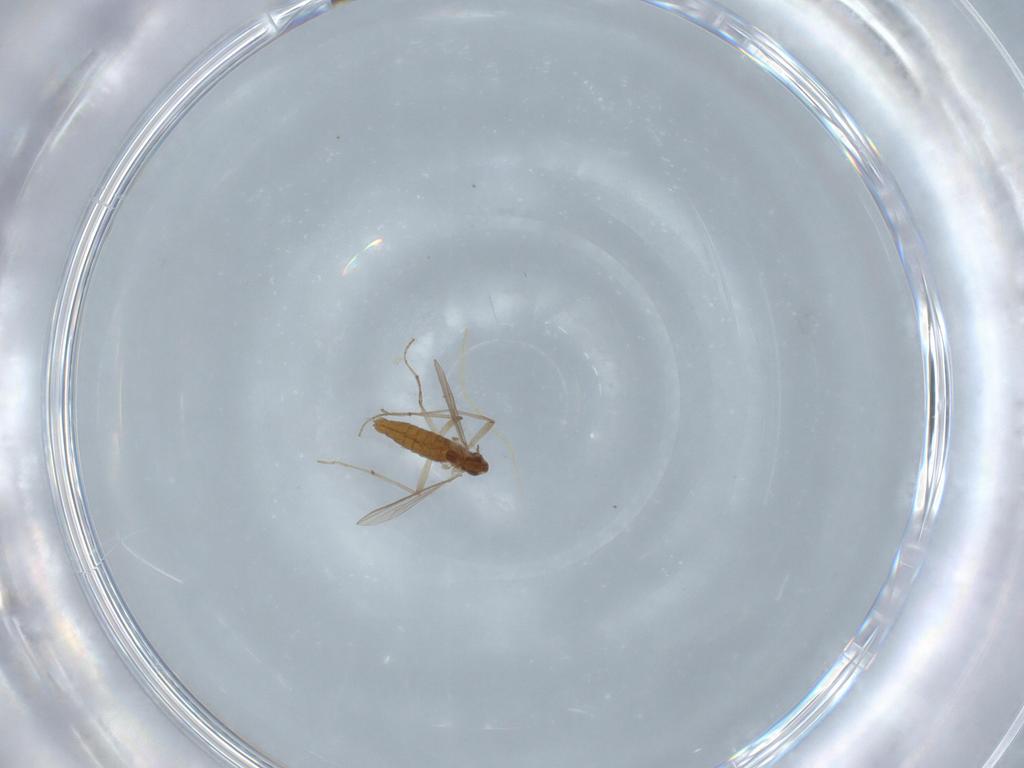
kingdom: Animalia
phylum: Arthropoda
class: Insecta
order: Diptera
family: Chironomidae
